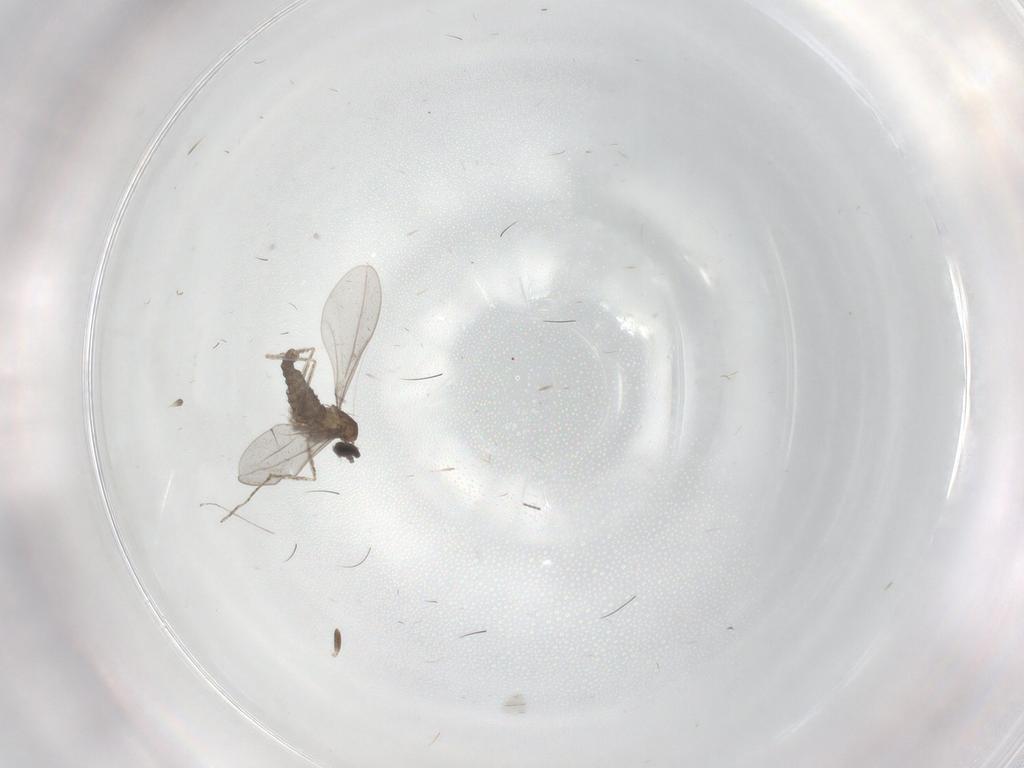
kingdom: Animalia
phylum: Arthropoda
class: Insecta
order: Diptera
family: Cecidomyiidae
